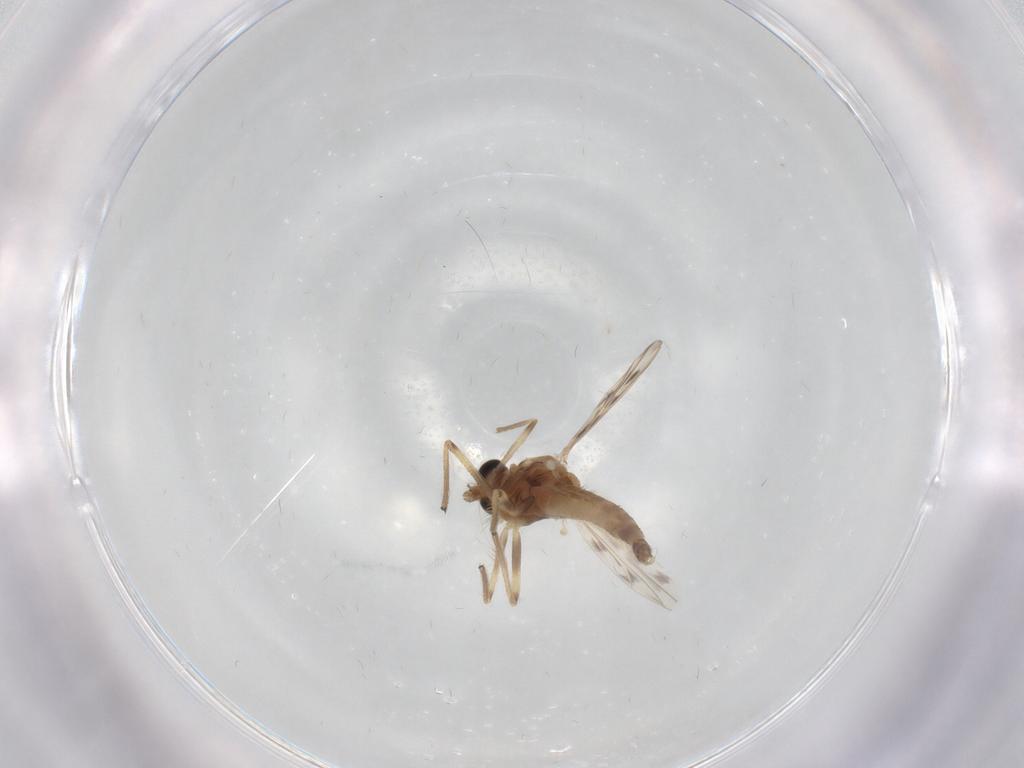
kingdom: Animalia
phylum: Arthropoda
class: Insecta
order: Diptera
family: Chironomidae
